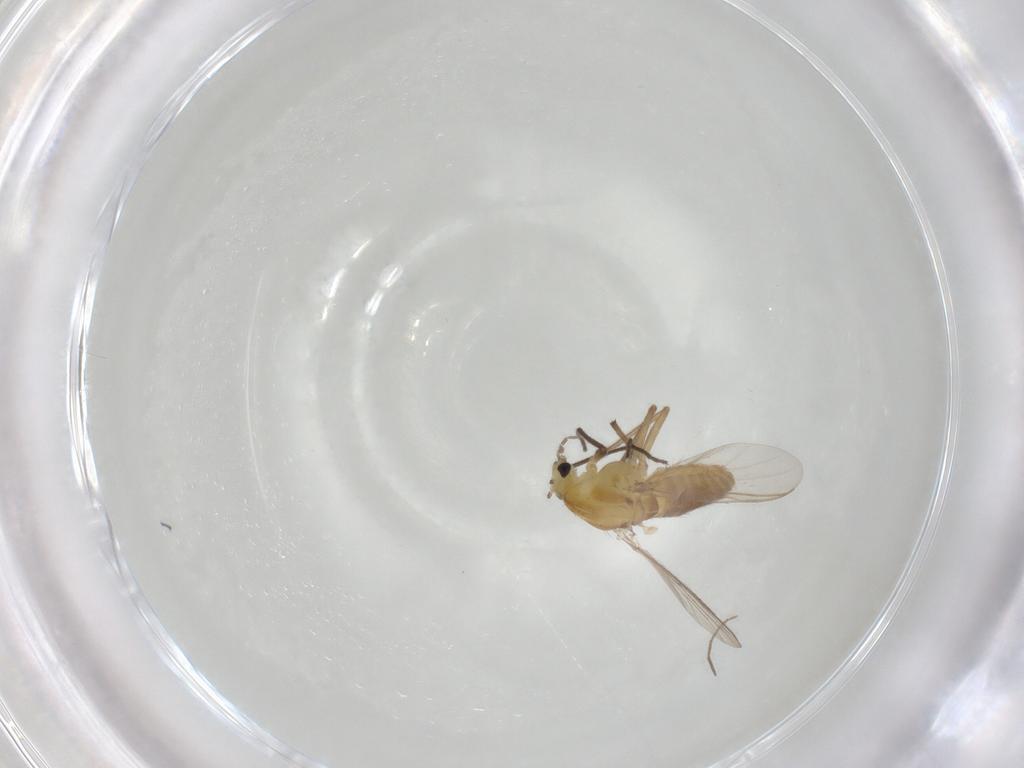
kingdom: Animalia
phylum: Arthropoda
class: Insecta
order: Diptera
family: Chironomidae
